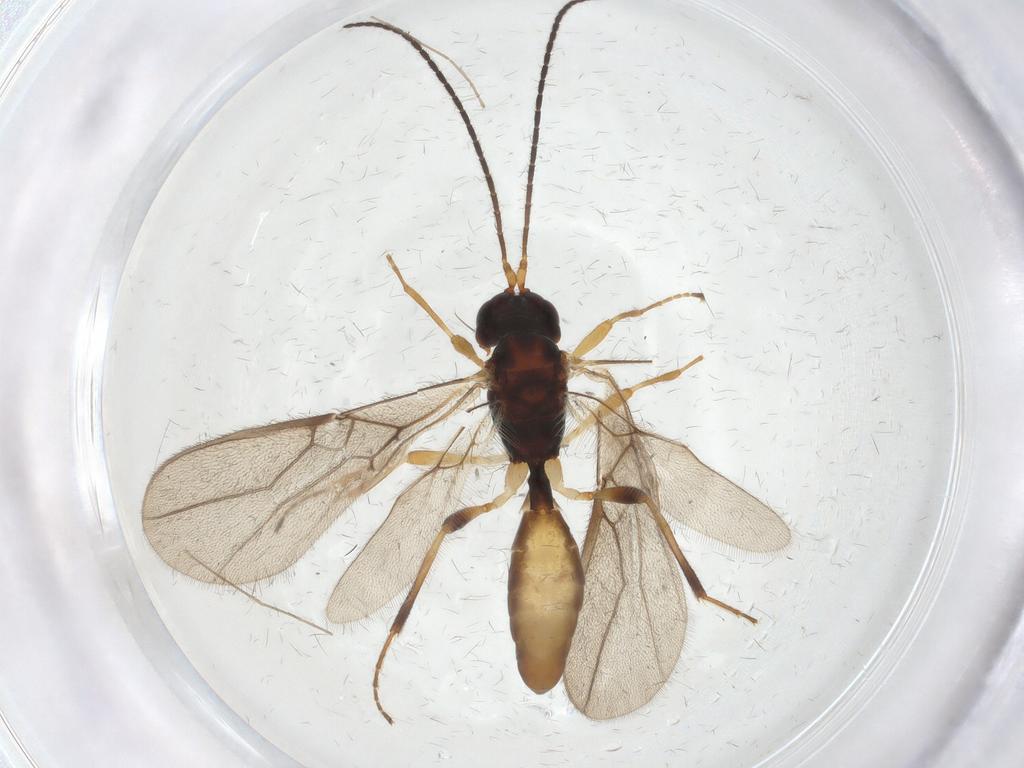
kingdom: Animalia
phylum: Arthropoda
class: Insecta
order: Hymenoptera
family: Braconidae
